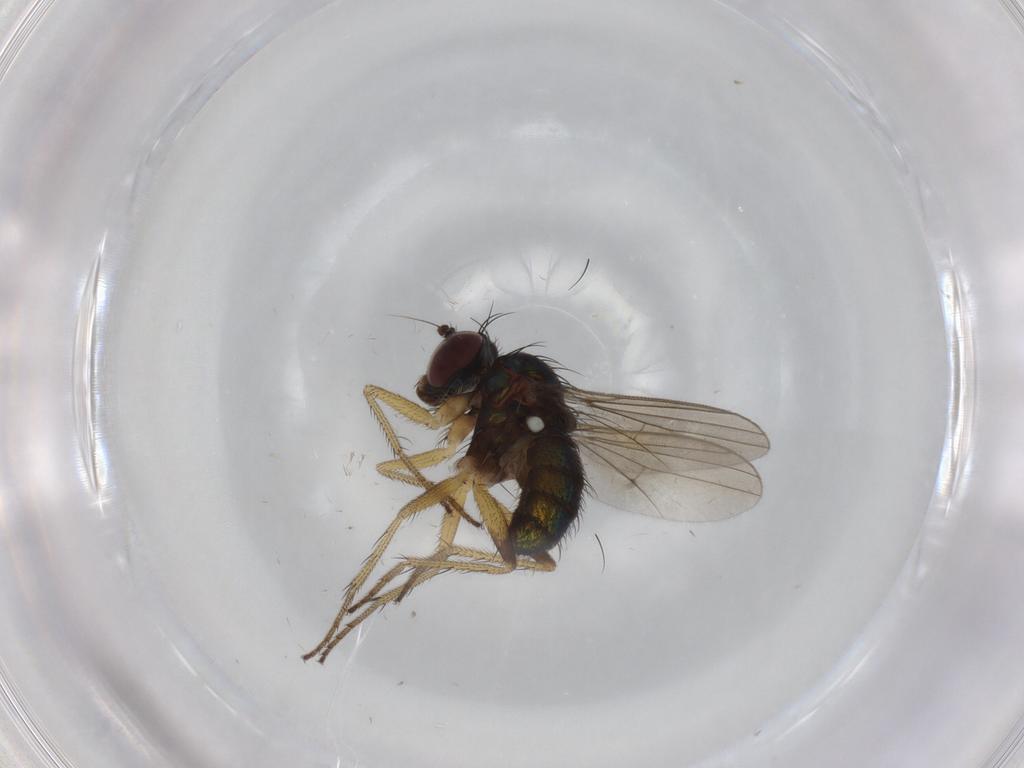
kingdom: Animalia
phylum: Arthropoda
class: Insecta
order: Diptera
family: Dolichopodidae
